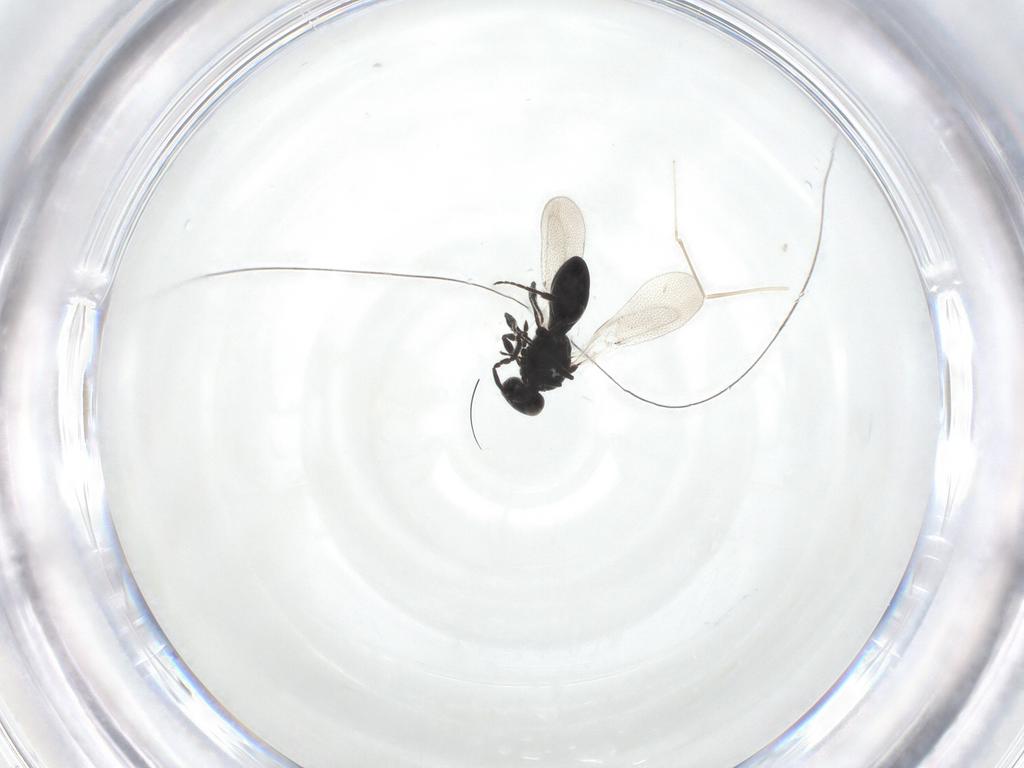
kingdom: Animalia
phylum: Arthropoda
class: Insecta
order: Hymenoptera
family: Platygastridae
